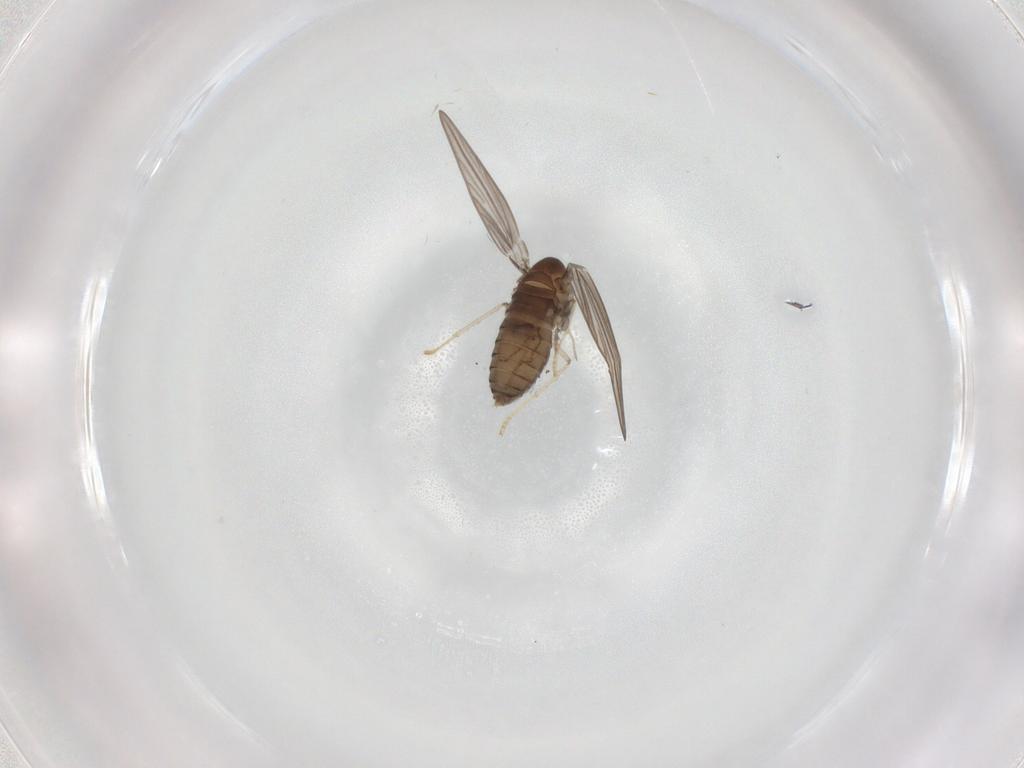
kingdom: Animalia
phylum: Arthropoda
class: Insecta
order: Diptera
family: Psychodidae
